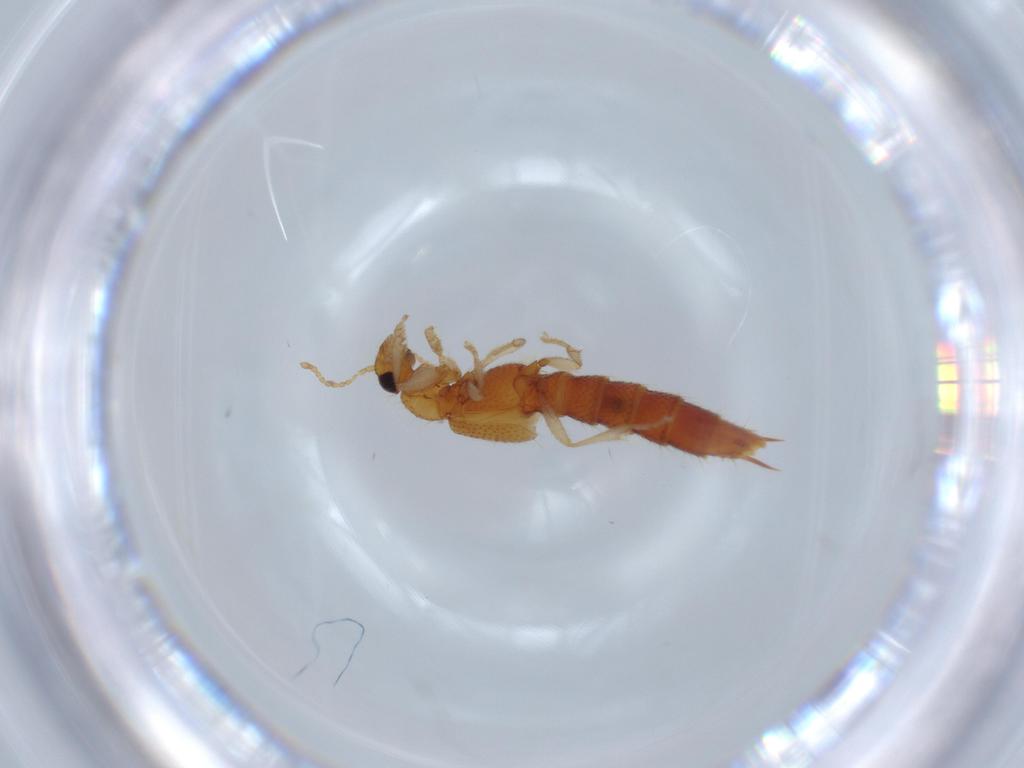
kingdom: Animalia
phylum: Arthropoda
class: Insecta
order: Coleoptera
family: Staphylinidae
